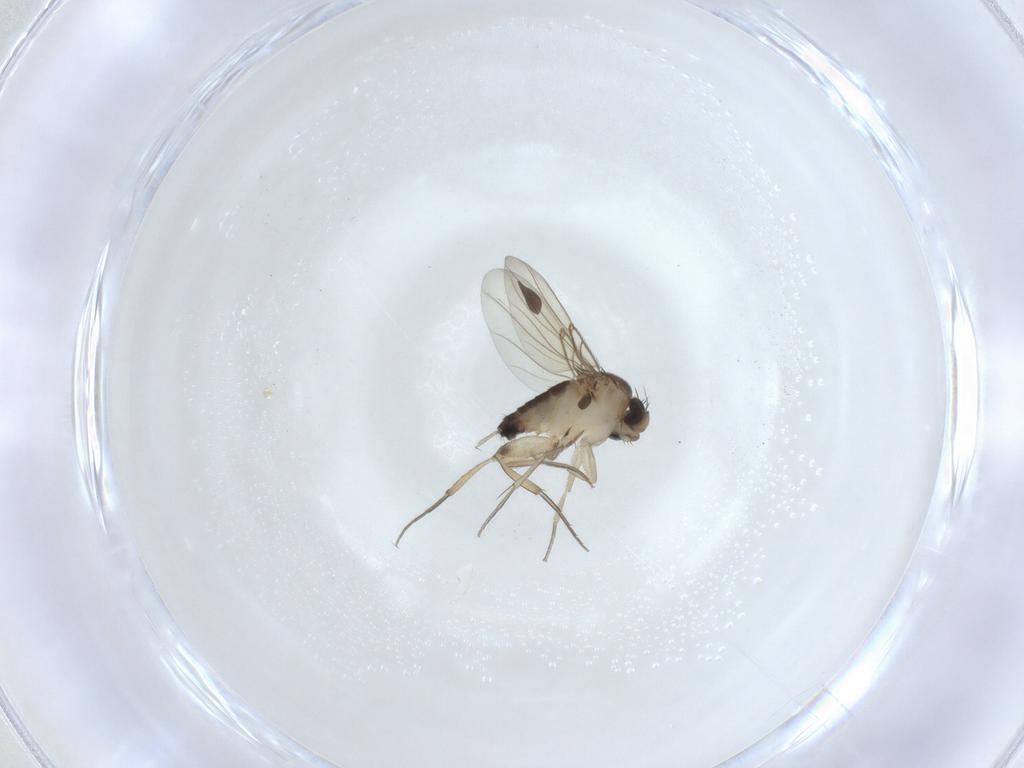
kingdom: Animalia
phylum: Arthropoda
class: Insecta
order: Diptera
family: Phoridae
